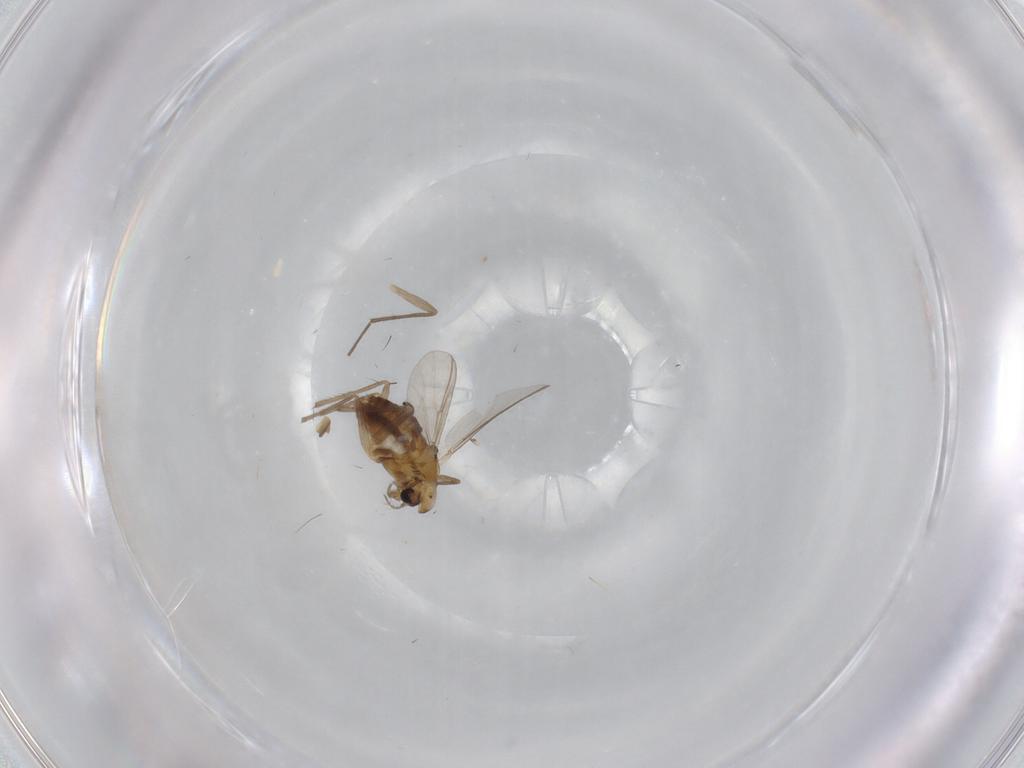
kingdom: Animalia
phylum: Arthropoda
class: Insecta
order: Diptera
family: Chironomidae
